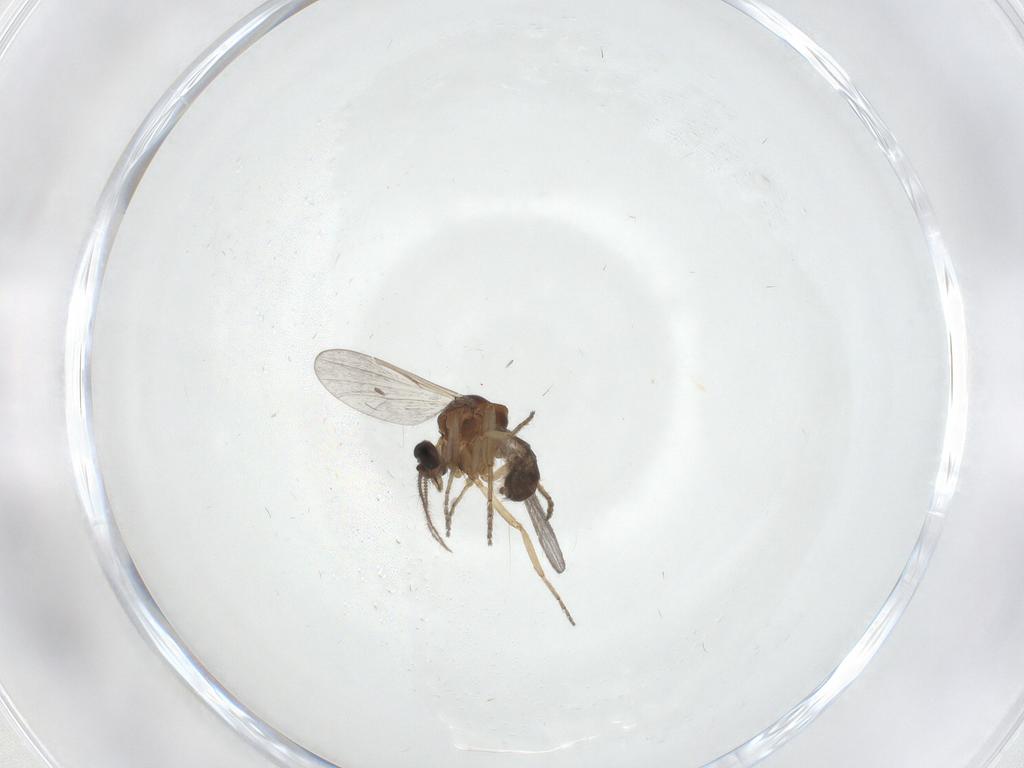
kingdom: Animalia
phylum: Arthropoda
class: Insecta
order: Diptera
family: Ceratopogonidae
